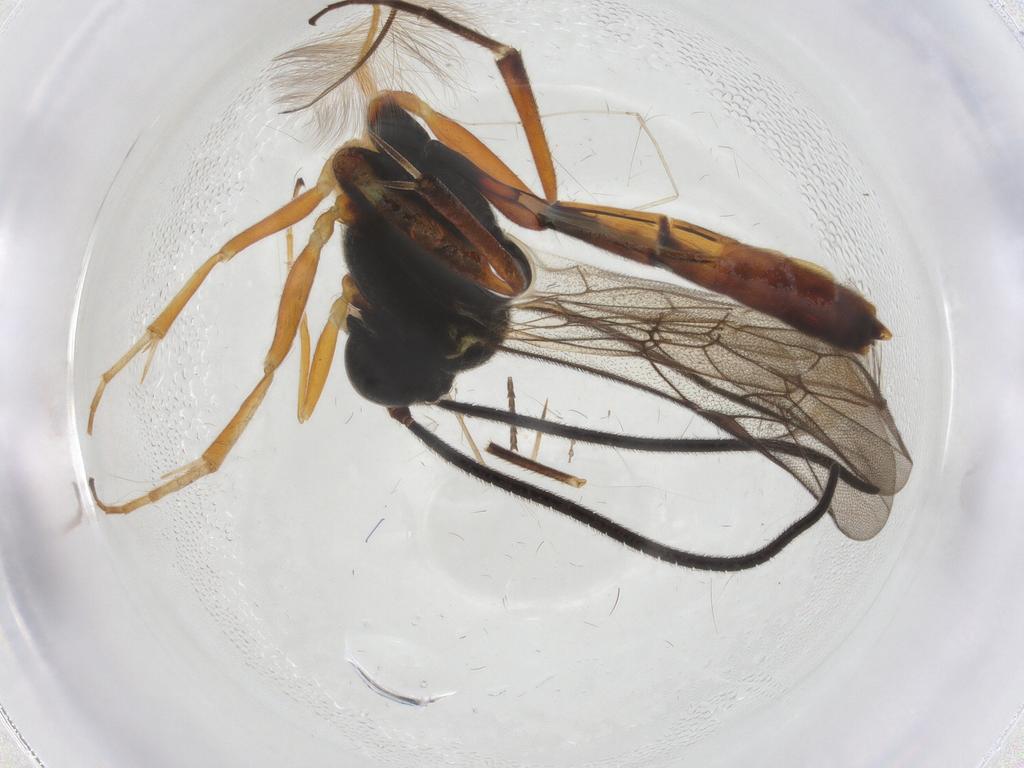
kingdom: Animalia
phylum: Arthropoda
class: Insecta
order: Hymenoptera
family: Ichneumonidae
